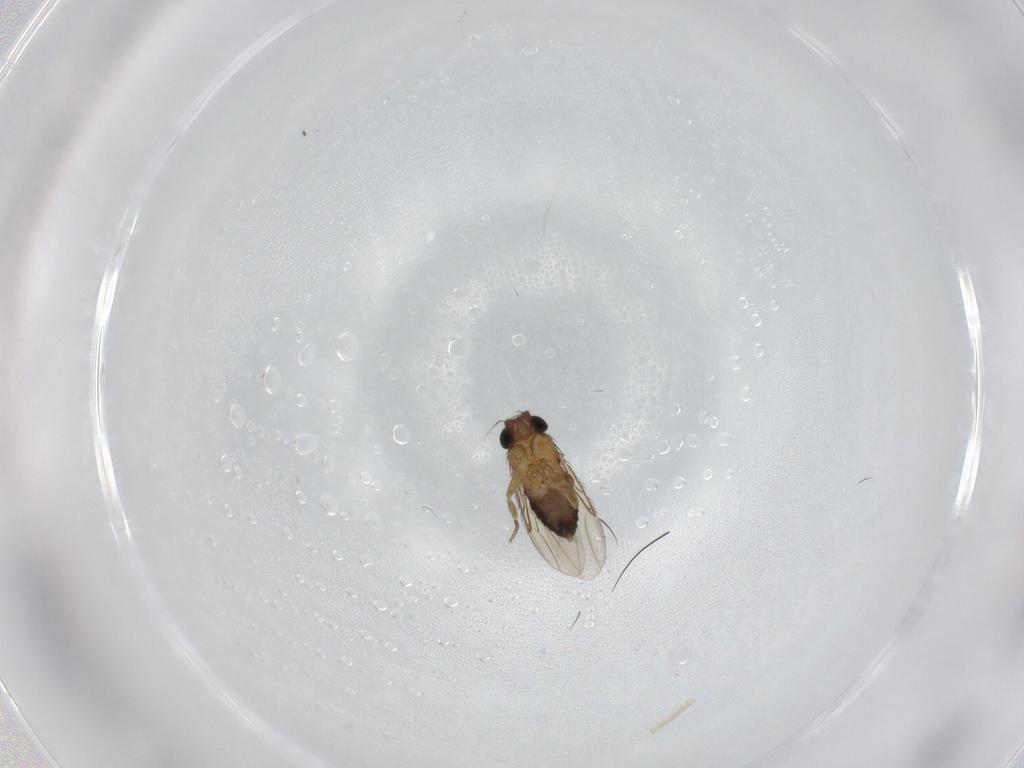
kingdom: Animalia
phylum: Arthropoda
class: Insecta
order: Diptera
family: Phoridae
